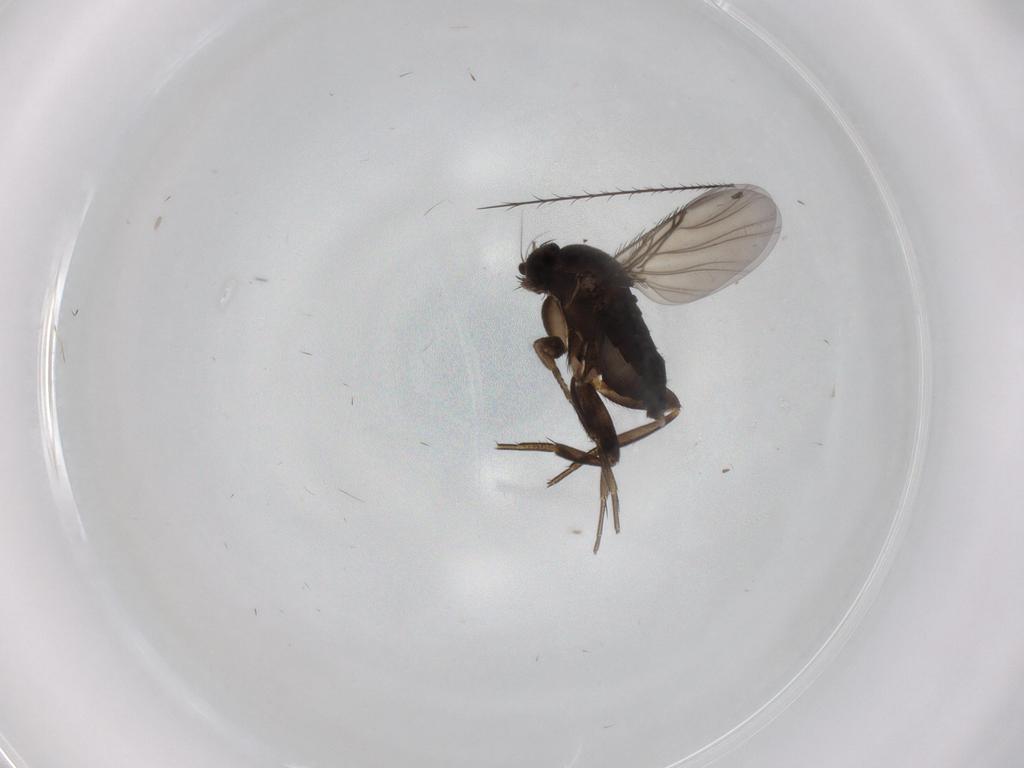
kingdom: Animalia
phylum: Arthropoda
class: Insecta
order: Diptera
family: Phoridae
